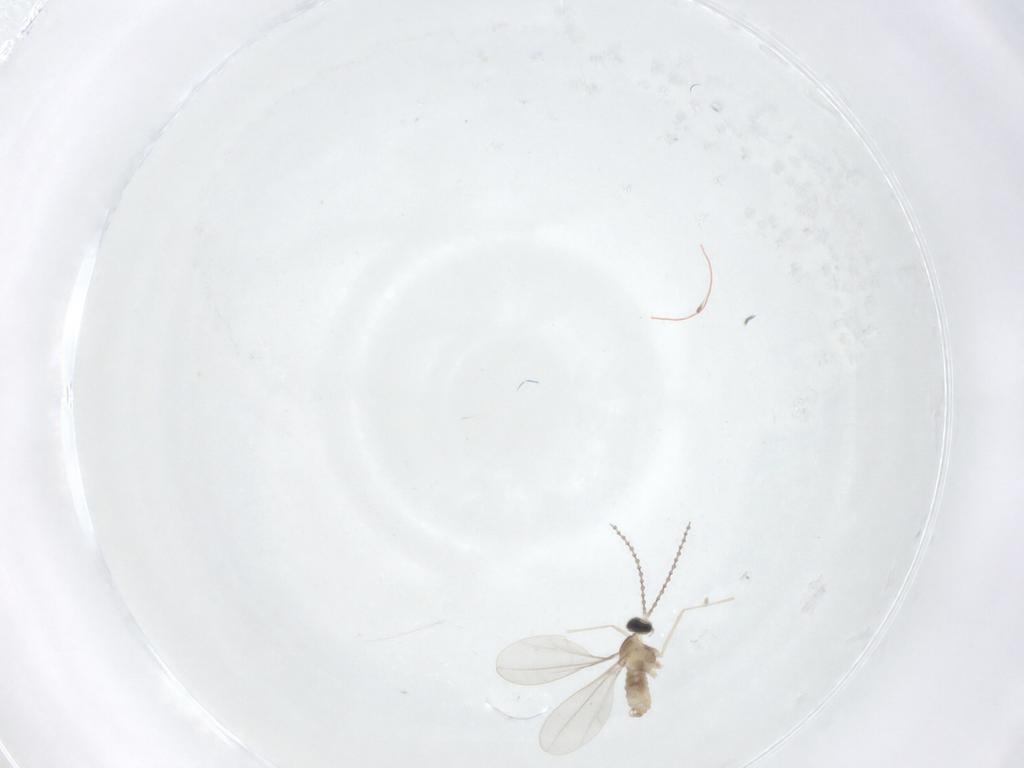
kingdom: Animalia
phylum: Arthropoda
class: Insecta
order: Diptera
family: Cecidomyiidae
